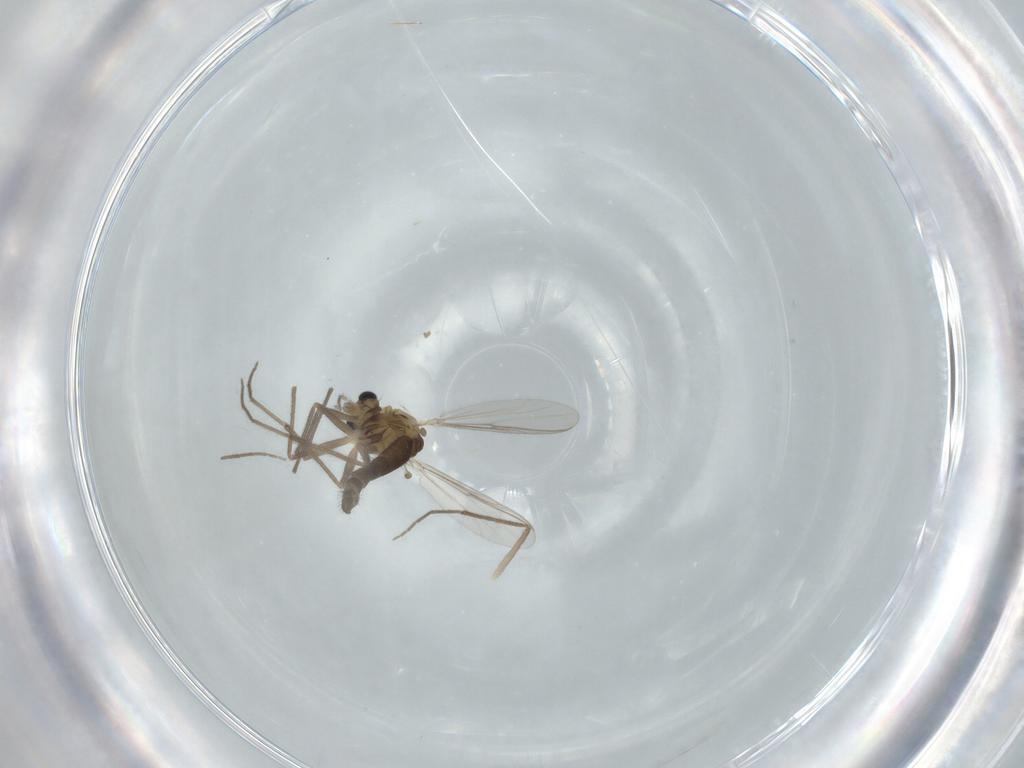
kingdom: Animalia
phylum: Arthropoda
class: Insecta
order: Diptera
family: Chironomidae
